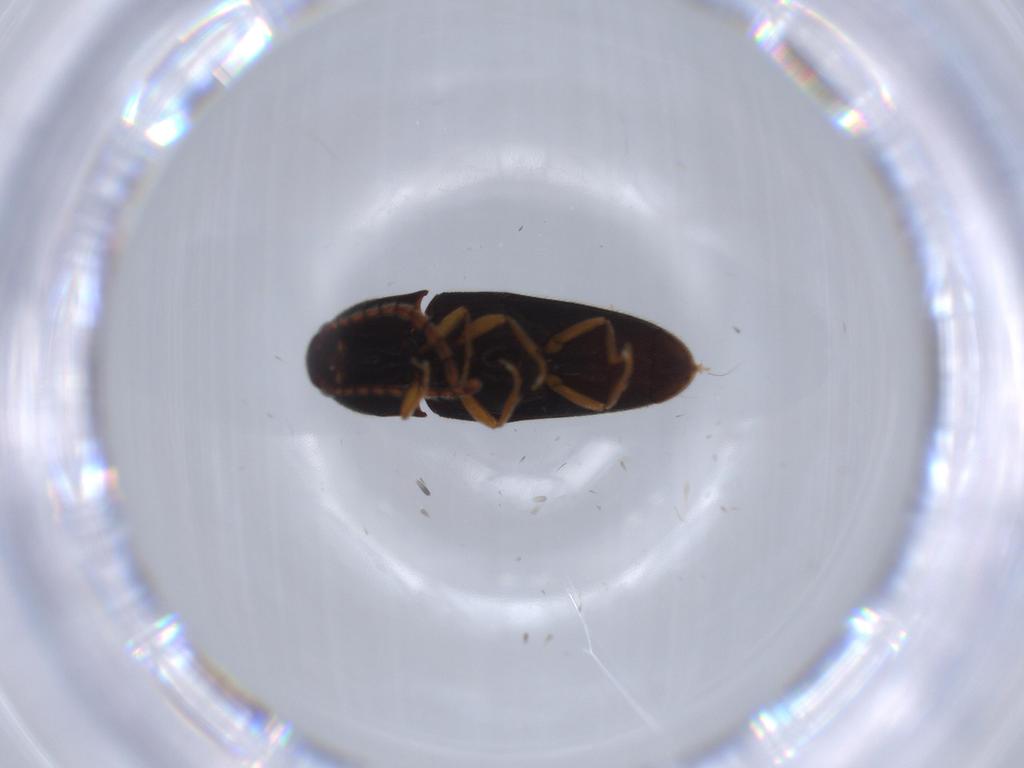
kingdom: Animalia
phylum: Arthropoda
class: Insecta
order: Coleoptera
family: Elateridae
